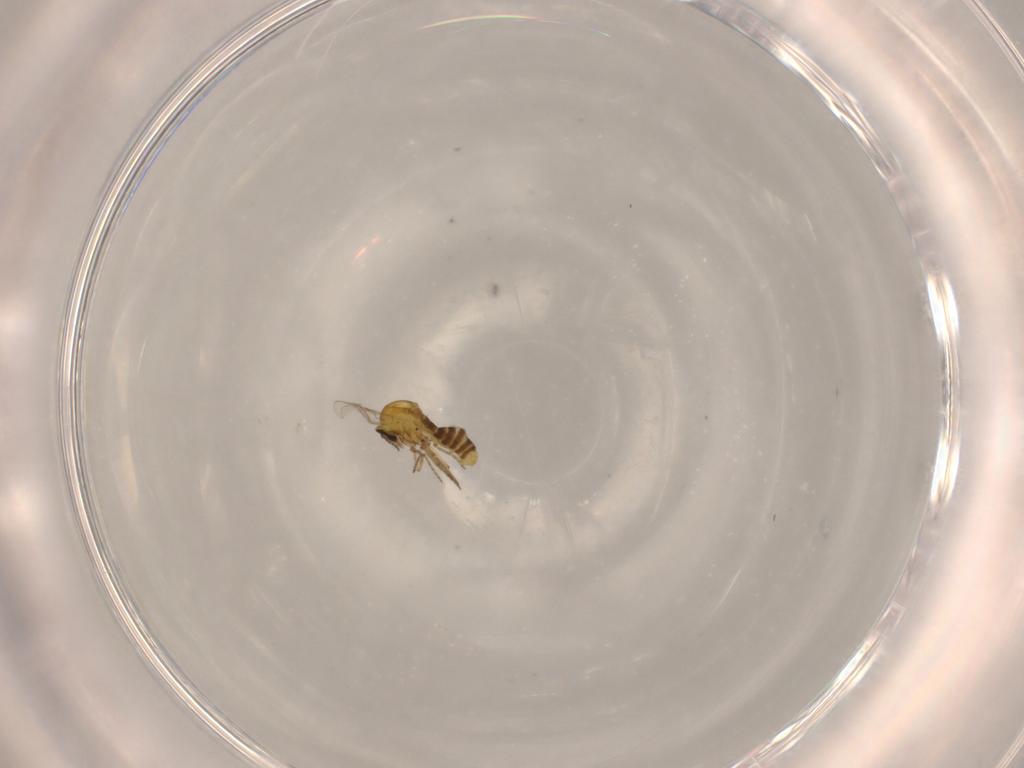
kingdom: Animalia
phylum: Arthropoda
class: Insecta
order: Diptera
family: Ceratopogonidae
